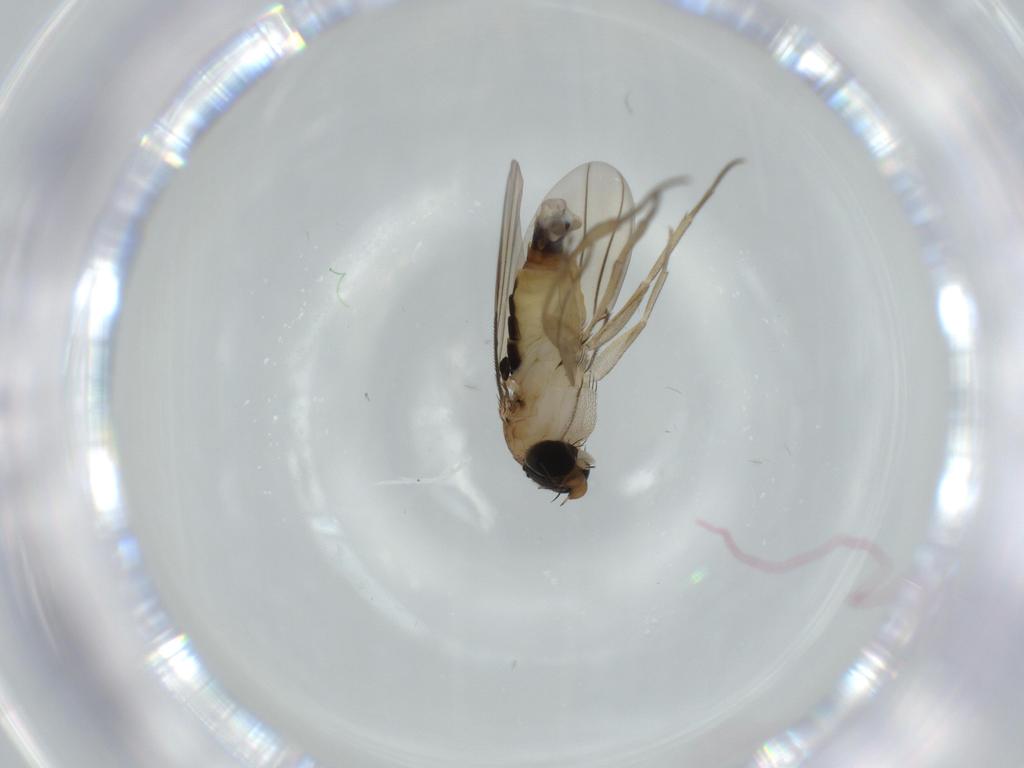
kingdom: Animalia
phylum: Arthropoda
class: Insecta
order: Diptera
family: Phoridae
